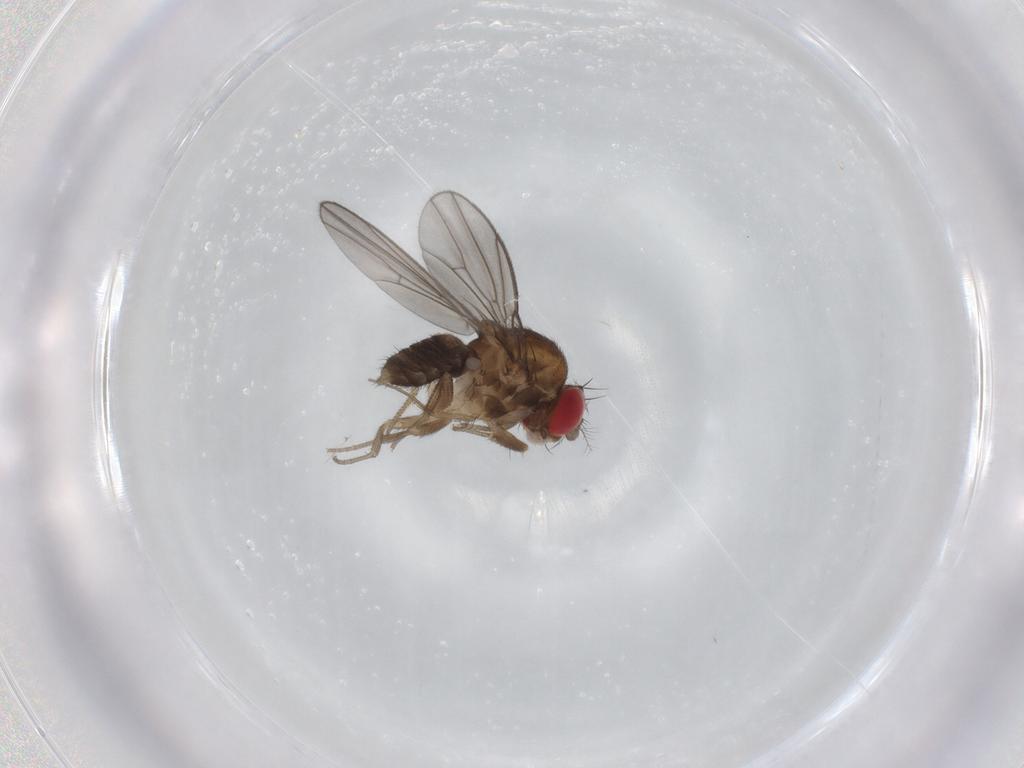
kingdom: Animalia
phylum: Arthropoda
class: Insecta
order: Diptera
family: Drosophilidae
